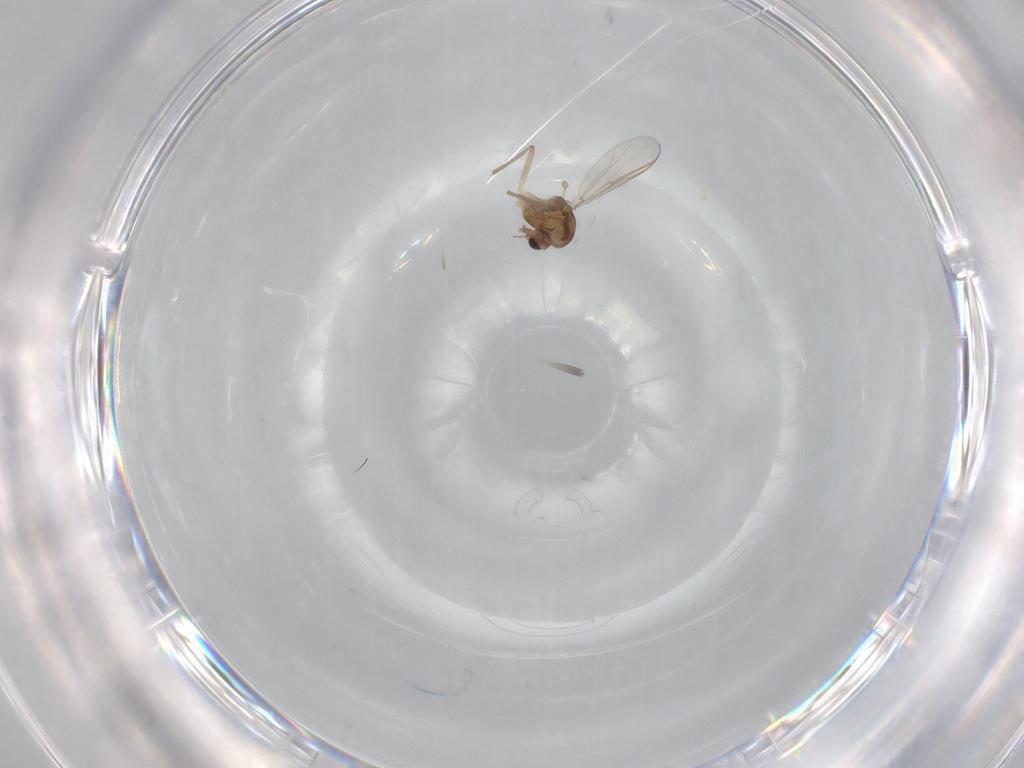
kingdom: Animalia
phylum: Arthropoda
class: Insecta
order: Diptera
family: Chironomidae
